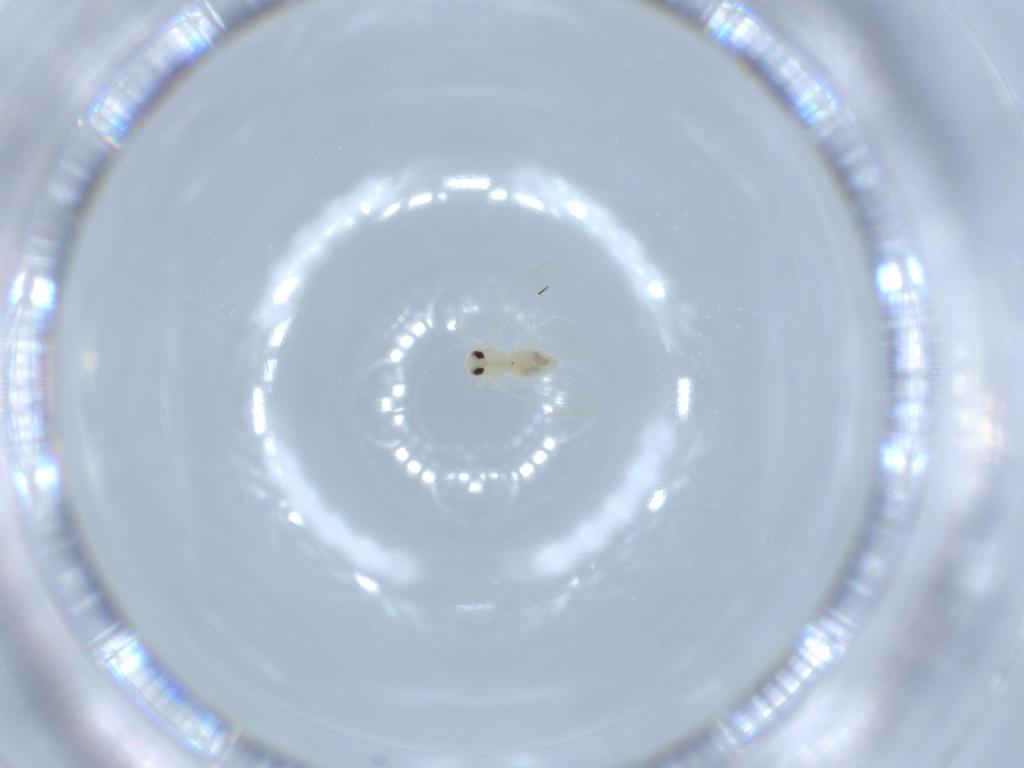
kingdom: Animalia
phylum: Arthropoda
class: Insecta
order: Hemiptera
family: Aleyrodidae
